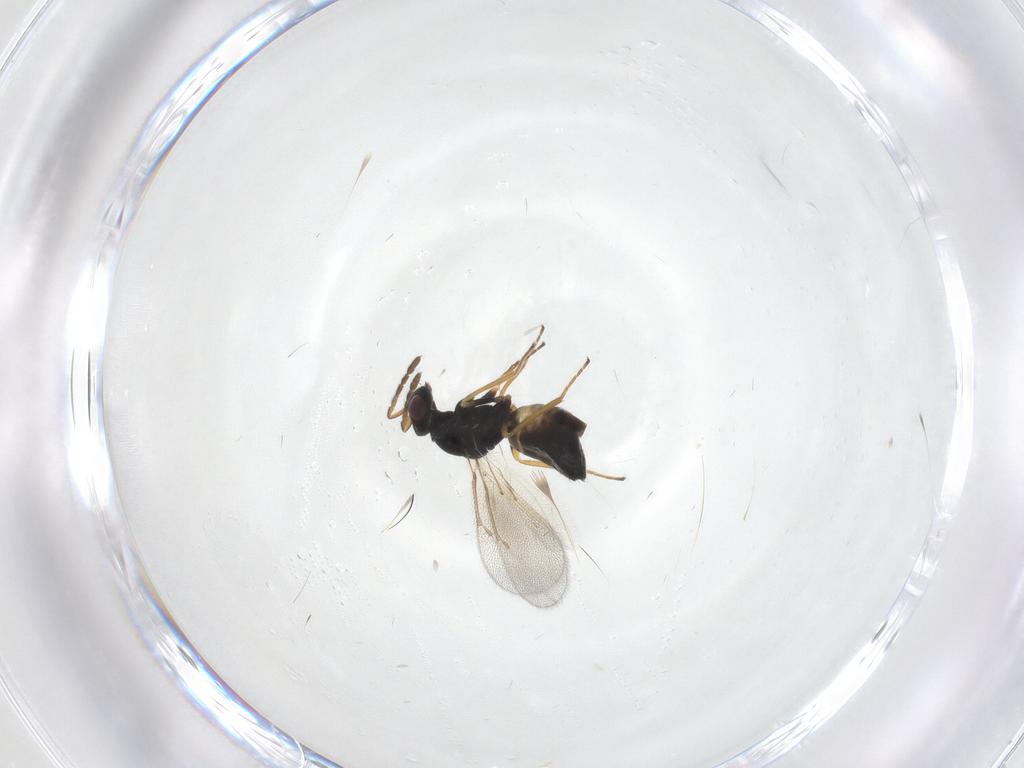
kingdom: Animalia
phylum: Arthropoda
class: Insecta
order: Hymenoptera
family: Eulophidae
